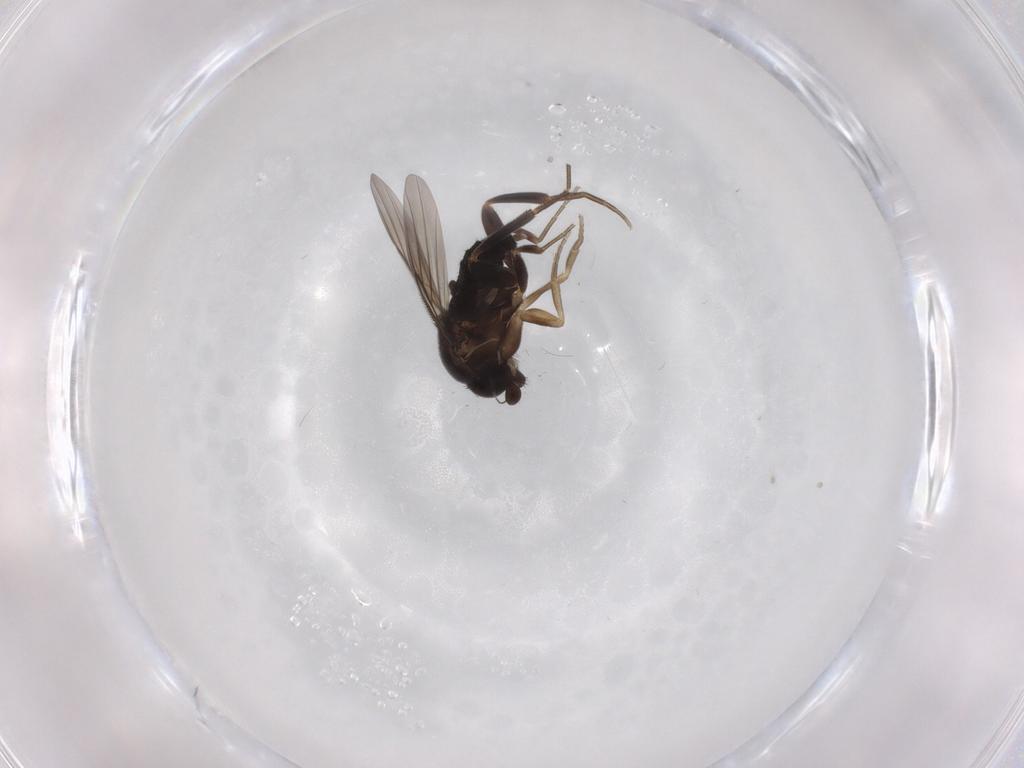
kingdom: Animalia
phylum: Arthropoda
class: Insecta
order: Diptera
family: Phoridae
